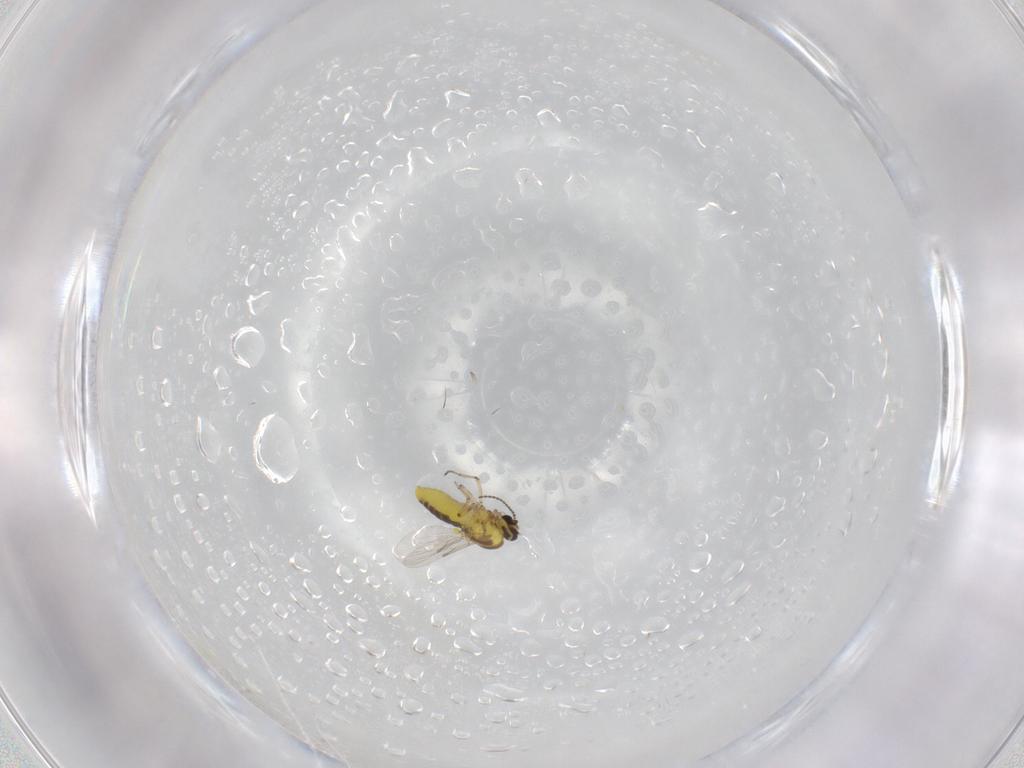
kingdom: Animalia
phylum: Arthropoda
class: Insecta
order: Diptera
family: Ceratopogonidae
